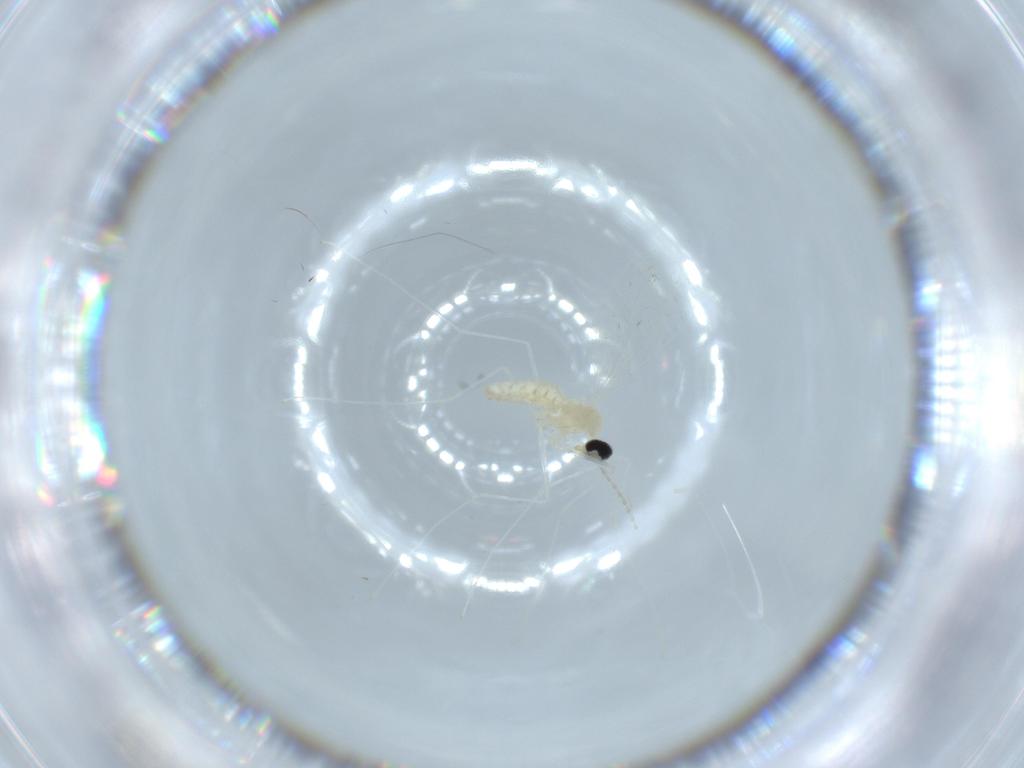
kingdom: Animalia
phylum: Arthropoda
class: Insecta
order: Diptera
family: Cecidomyiidae
